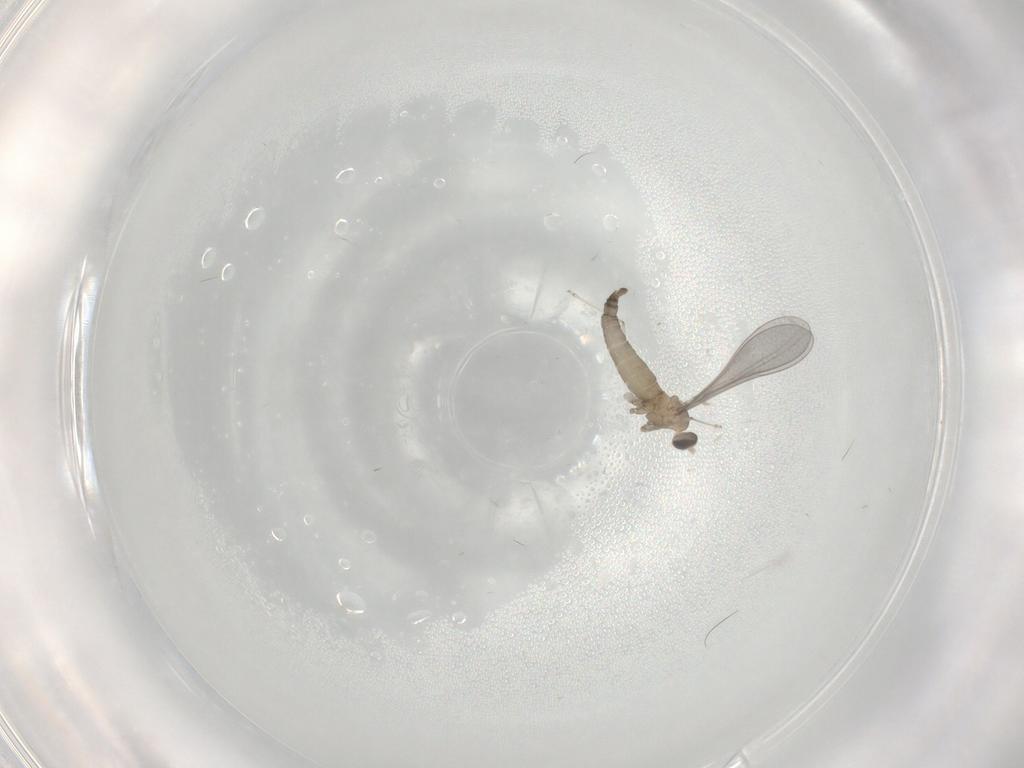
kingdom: Animalia
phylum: Arthropoda
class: Insecta
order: Diptera
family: Cecidomyiidae
